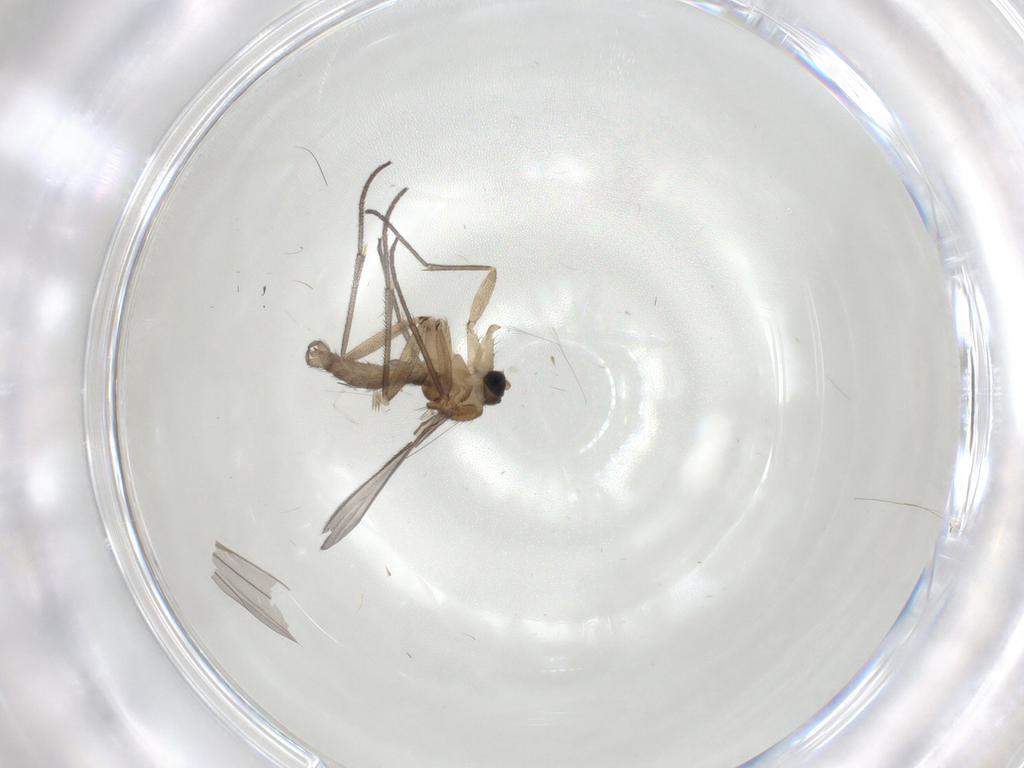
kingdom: Animalia
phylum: Arthropoda
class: Insecta
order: Diptera
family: Sciaridae
